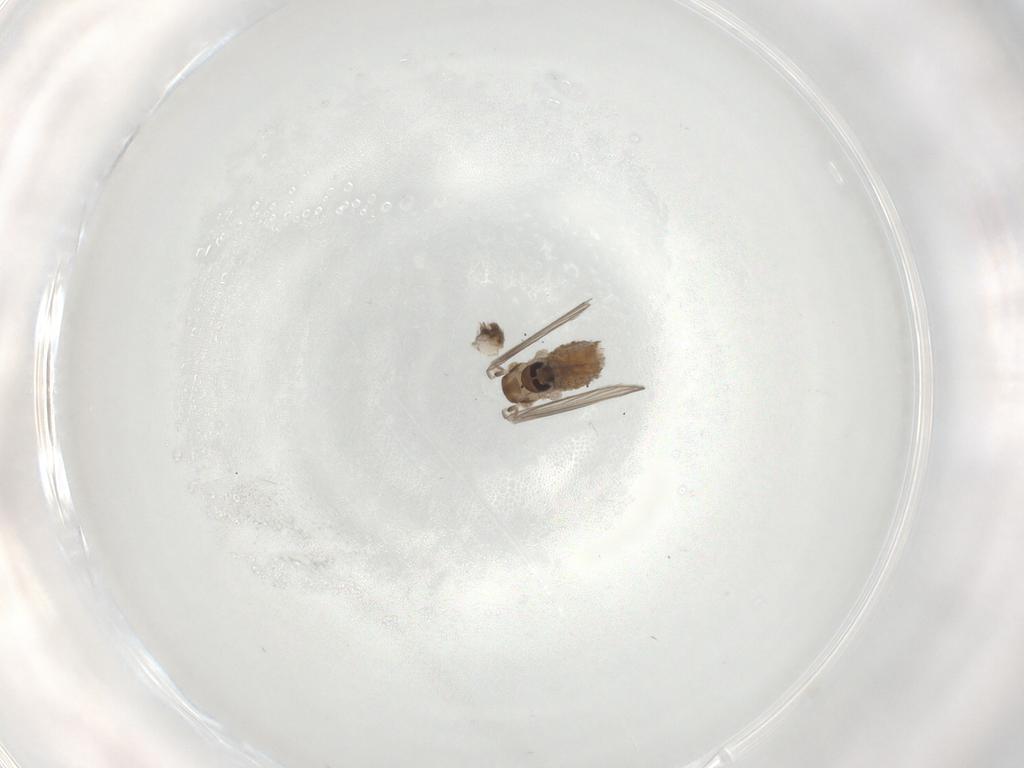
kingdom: Animalia
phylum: Arthropoda
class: Insecta
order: Diptera
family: Psychodidae
